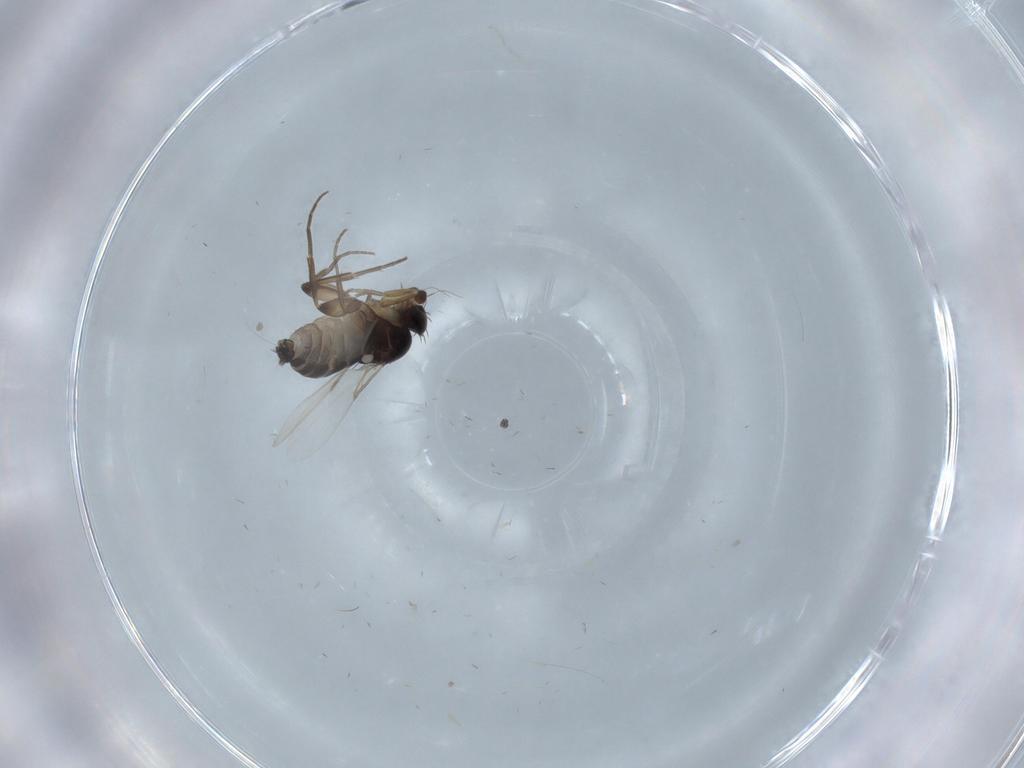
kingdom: Animalia
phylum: Arthropoda
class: Insecta
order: Diptera
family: Phoridae
